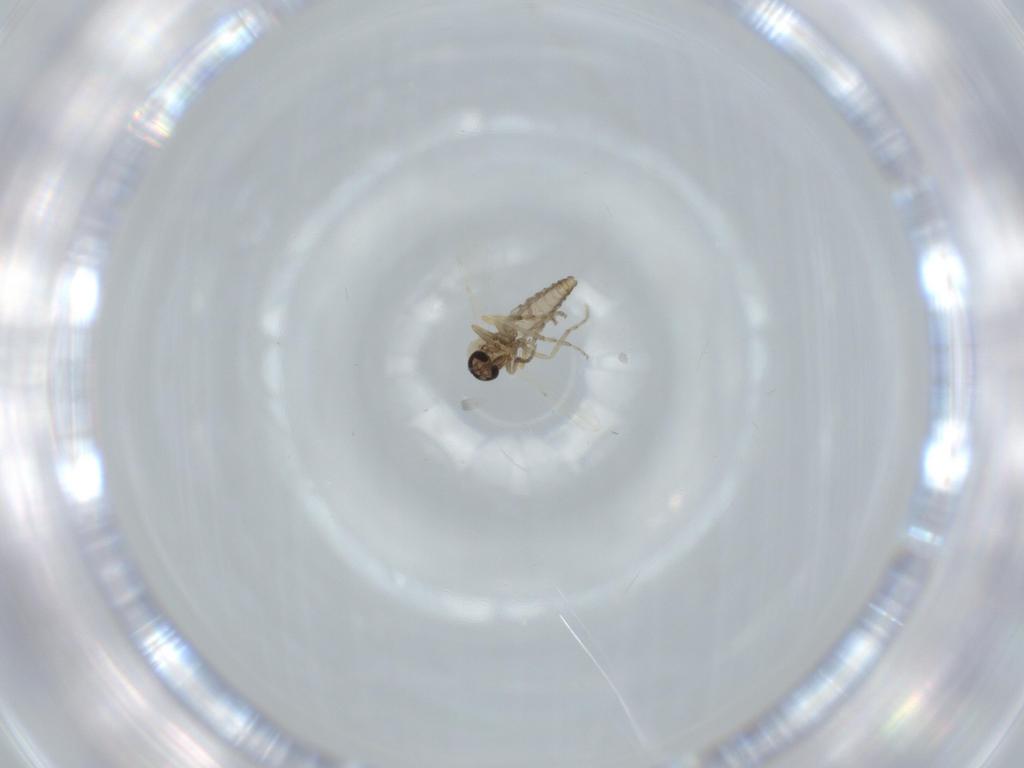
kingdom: Animalia
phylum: Arthropoda
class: Insecta
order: Diptera
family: Ceratopogonidae
